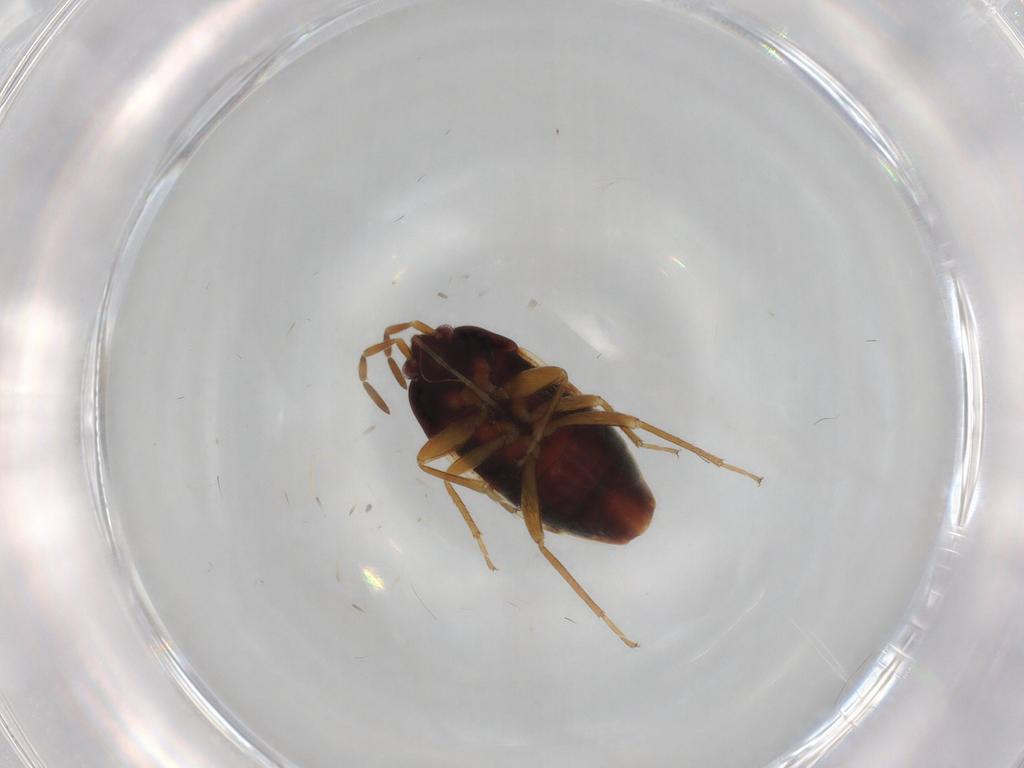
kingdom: Animalia
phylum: Arthropoda
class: Insecta
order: Hemiptera
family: Rhyparochromidae
